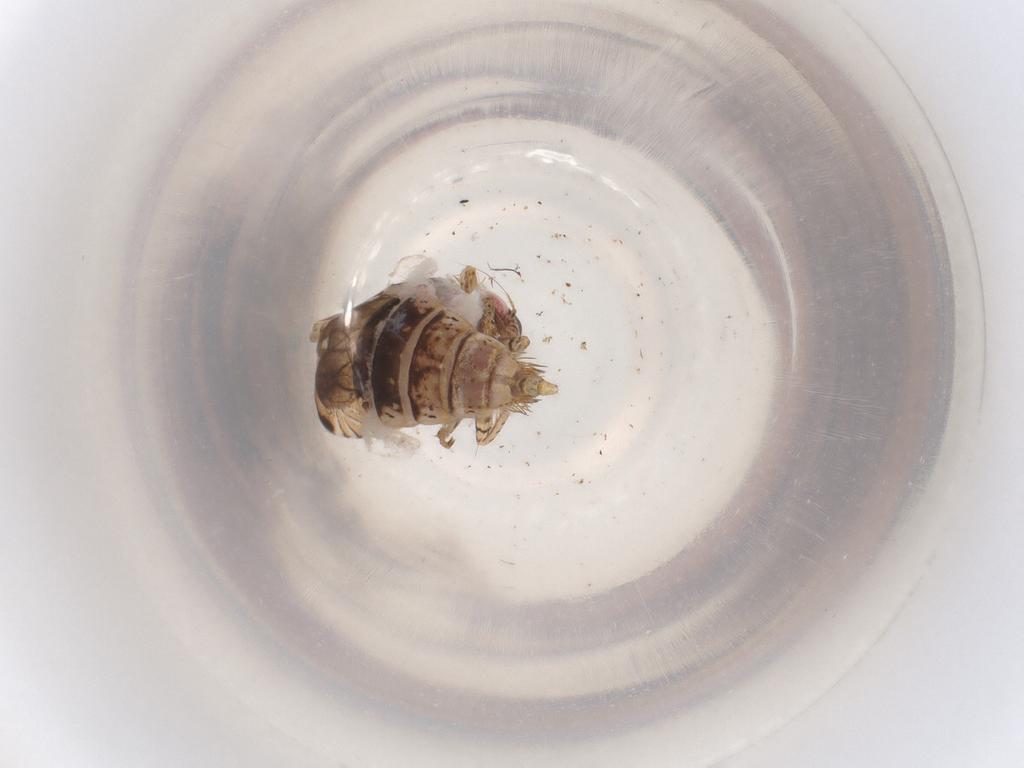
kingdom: Animalia
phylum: Arthropoda
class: Insecta
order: Hemiptera
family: Cicadellidae
